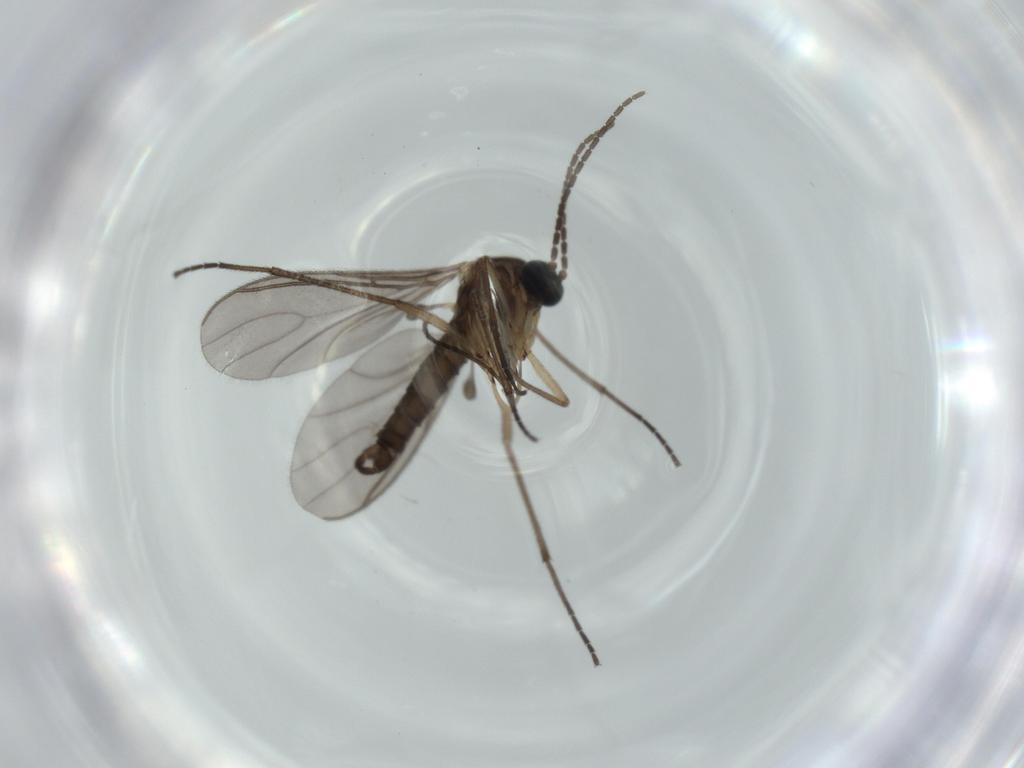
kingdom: Animalia
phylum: Arthropoda
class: Insecta
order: Diptera
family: Sciaridae
